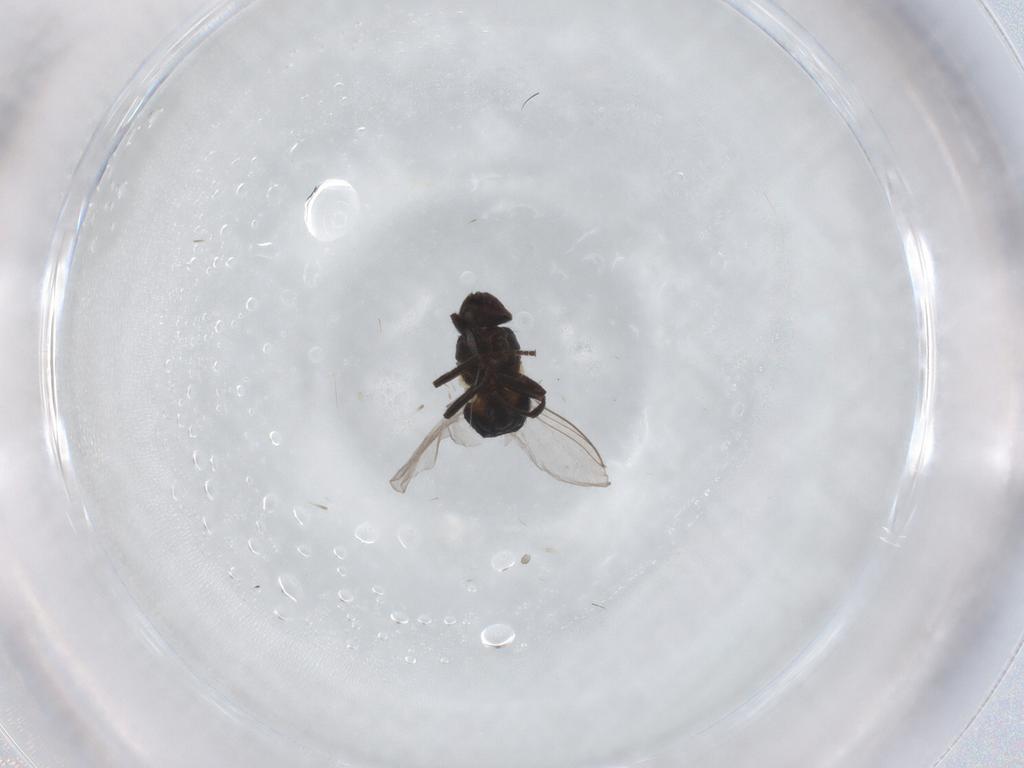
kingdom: Animalia
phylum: Arthropoda
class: Insecta
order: Diptera
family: Agromyzidae
